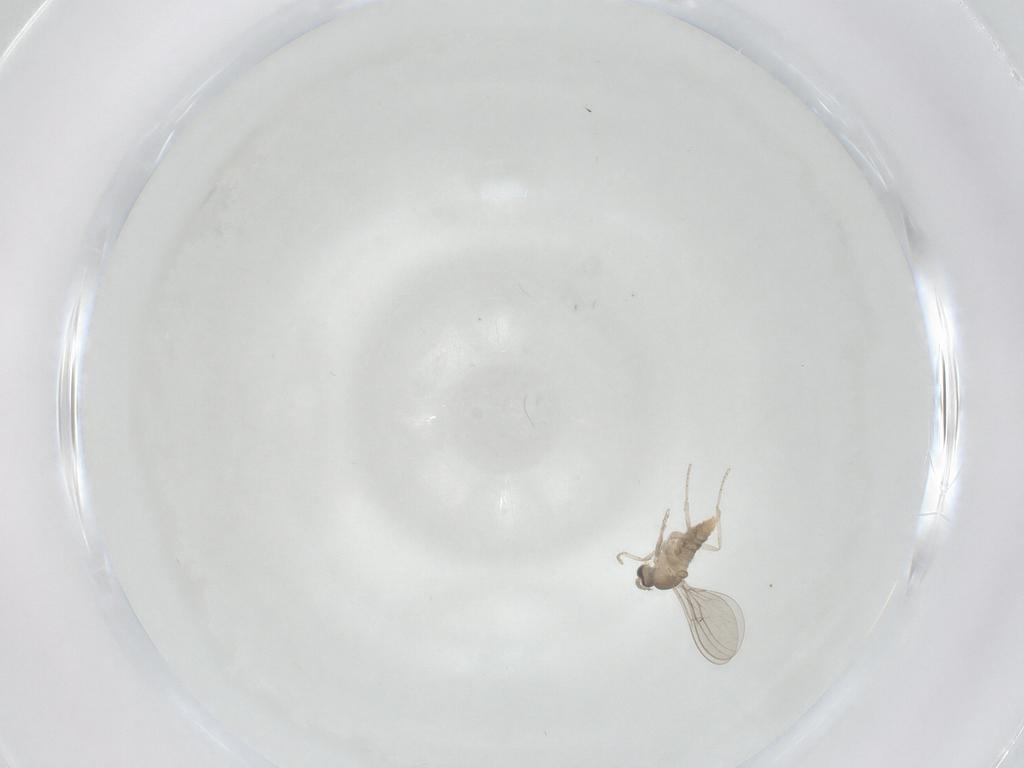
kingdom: Animalia
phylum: Arthropoda
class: Insecta
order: Diptera
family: Cecidomyiidae
